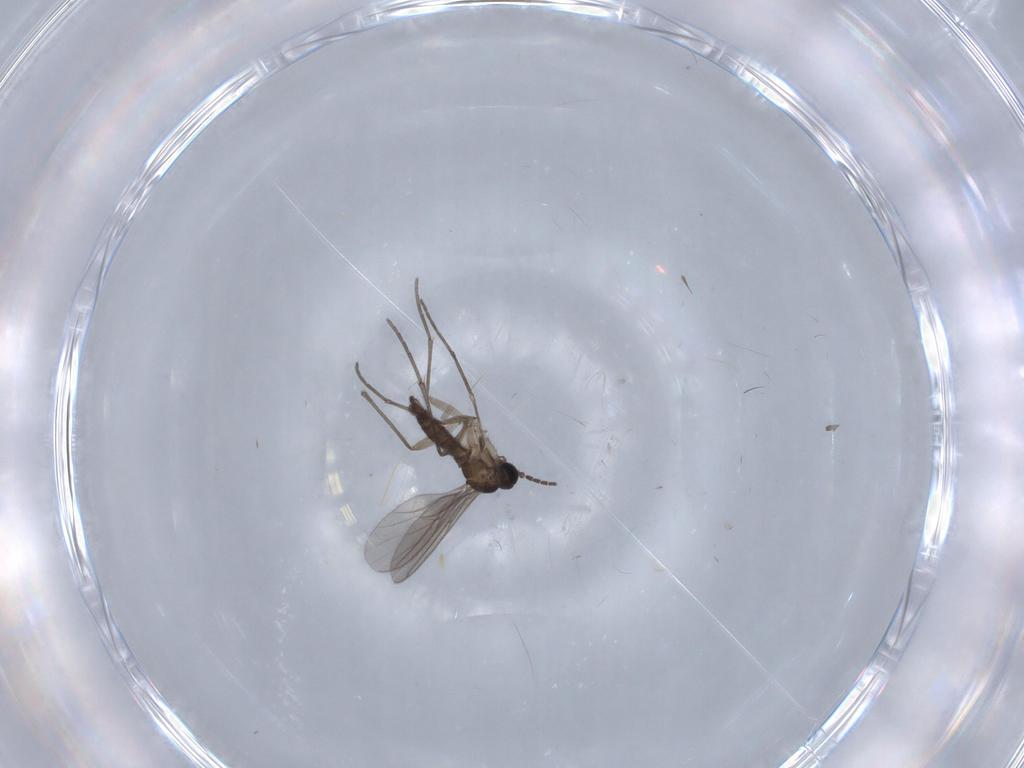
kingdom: Animalia
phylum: Arthropoda
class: Insecta
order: Diptera
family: Sciaridae
